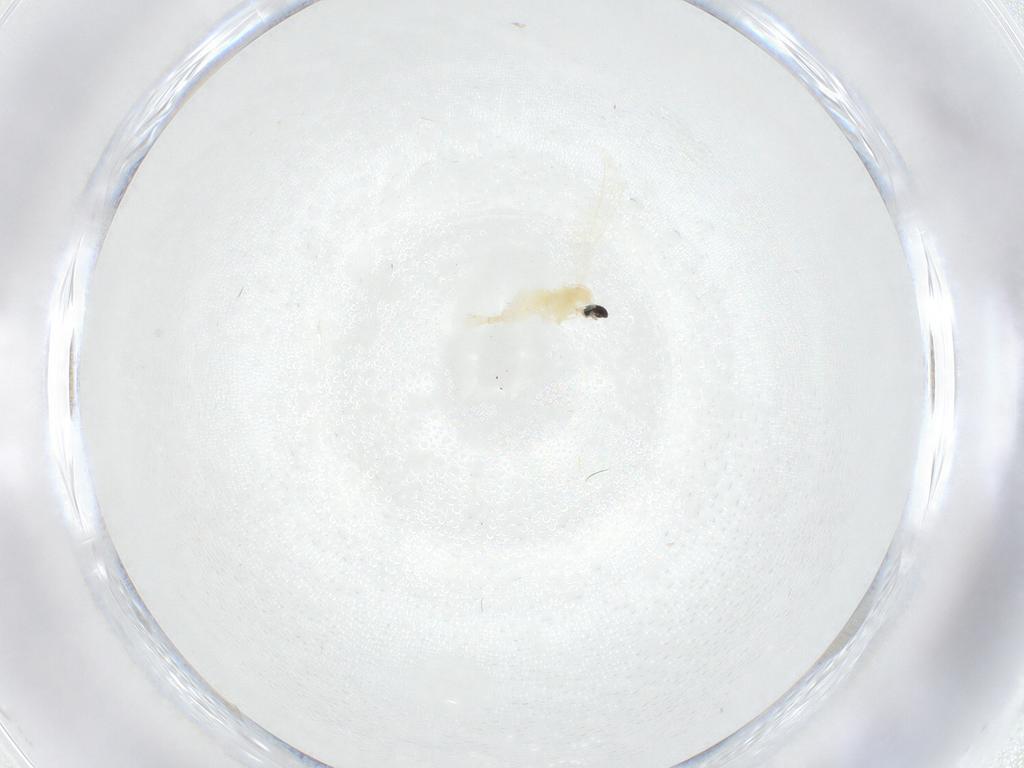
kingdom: Animalia
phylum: Arthropoda
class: Insecta
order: Diptera
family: Cecidomyiidae
